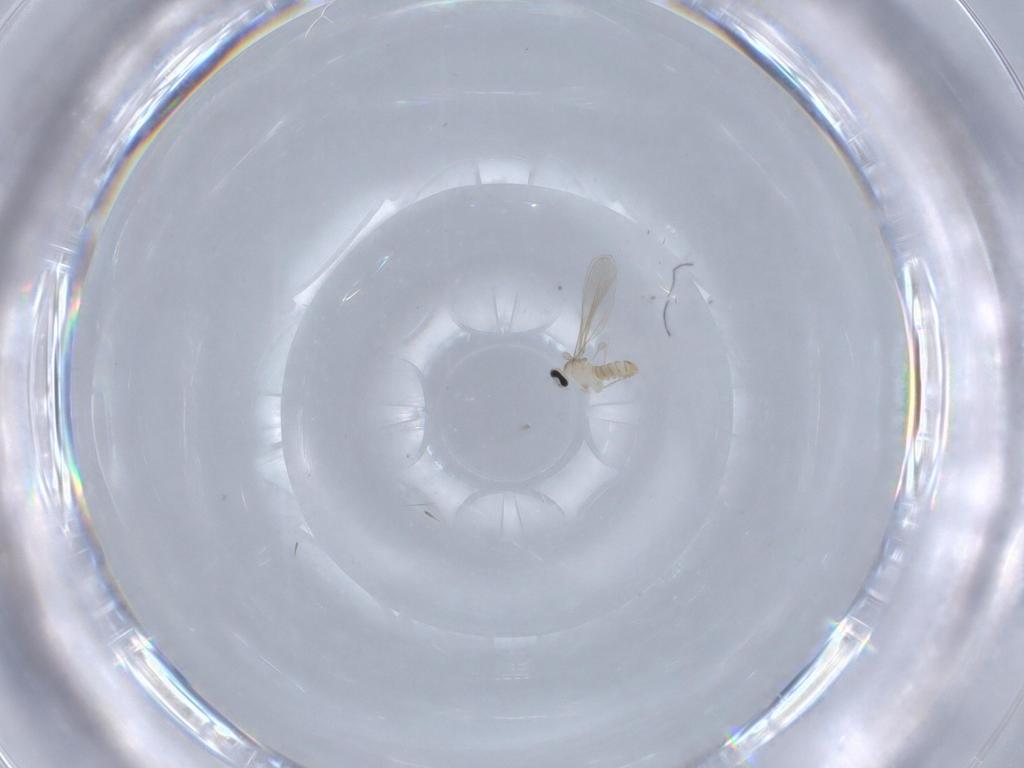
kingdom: Animalia
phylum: Arthropoda
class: Insecta
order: Diptera
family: Cecidomyiidae
